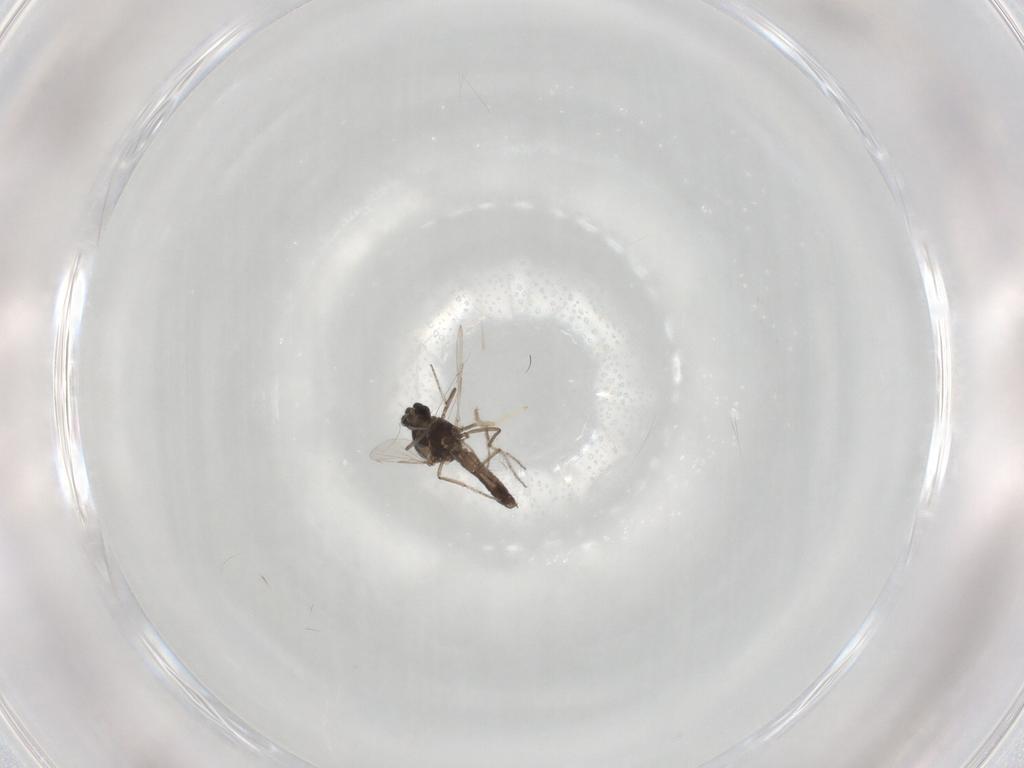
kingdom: Animalia
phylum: Arthropoda
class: Insecta
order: Diptera
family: Ceratopogonidae
